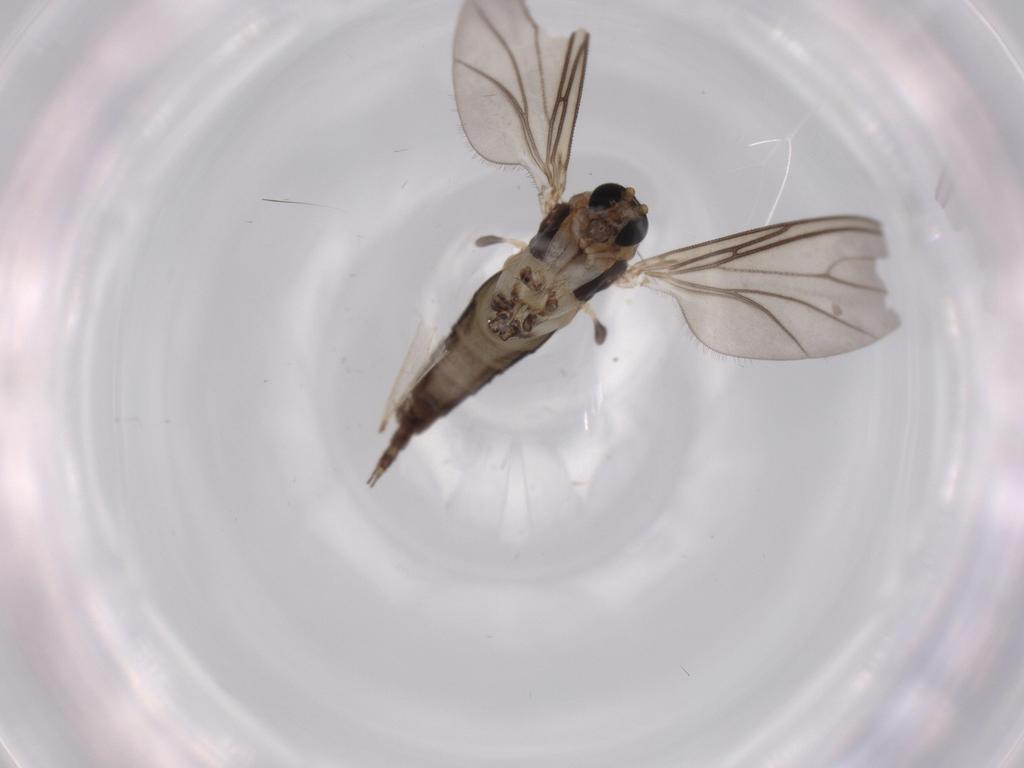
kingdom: Animalia
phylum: Arthropoda
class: Insecta
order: Diptera
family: Sciaridae
